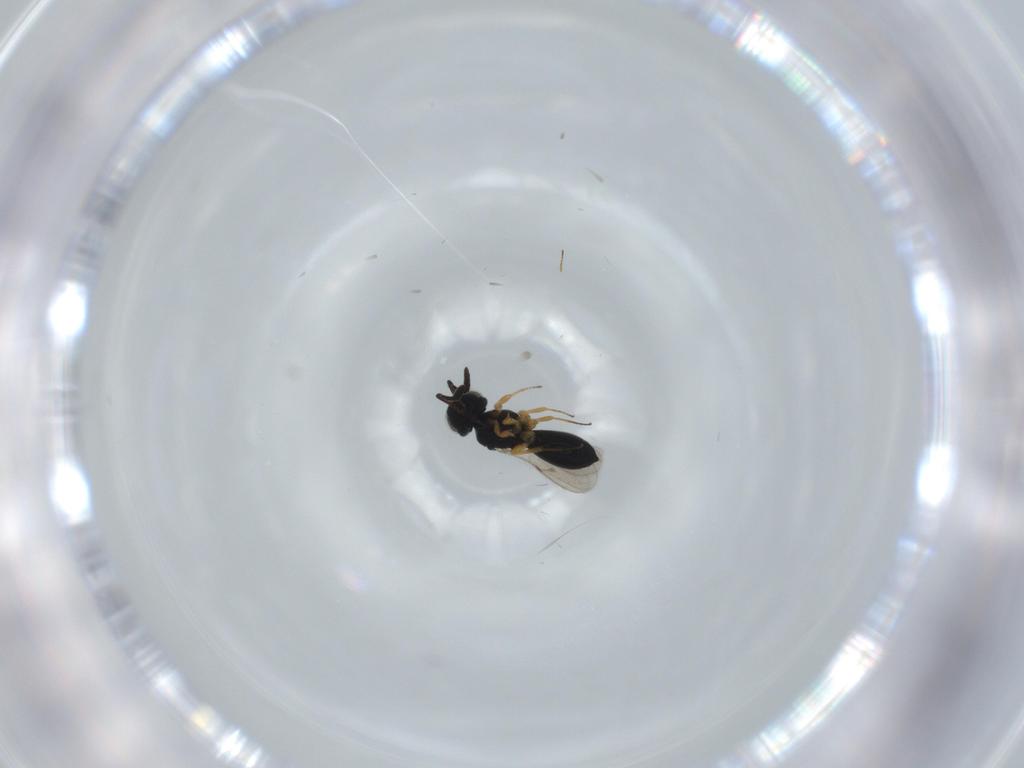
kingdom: Animalia
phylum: Arthropoda
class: Insecta
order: Hymenoptera
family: Scelionidae
